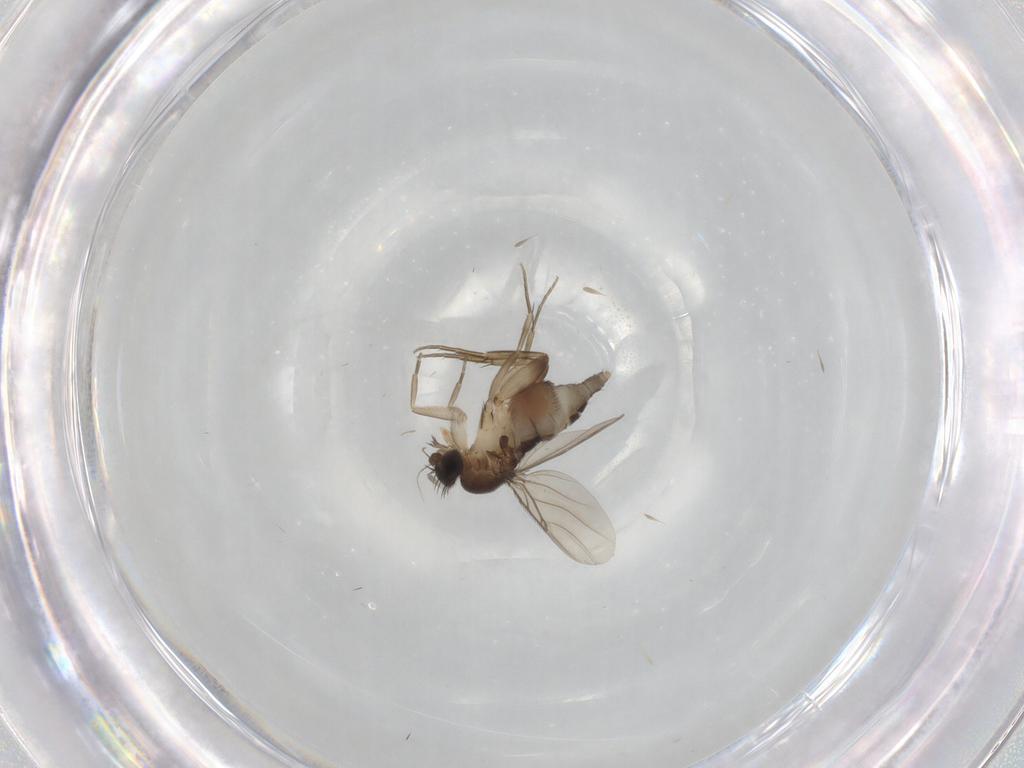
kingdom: Animalia
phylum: Arthropoda
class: Insecta
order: Diptera
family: Phoridae
